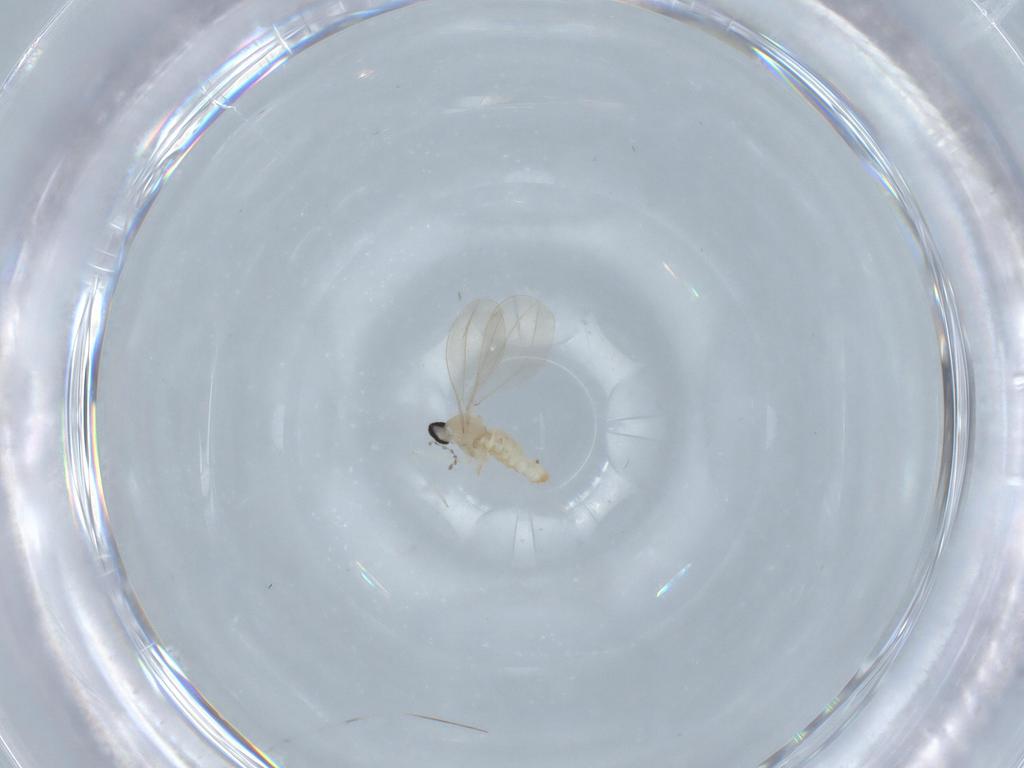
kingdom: Animalia
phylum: Arthropoda
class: Insecta
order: Diptera
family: Cecidomyiidae
